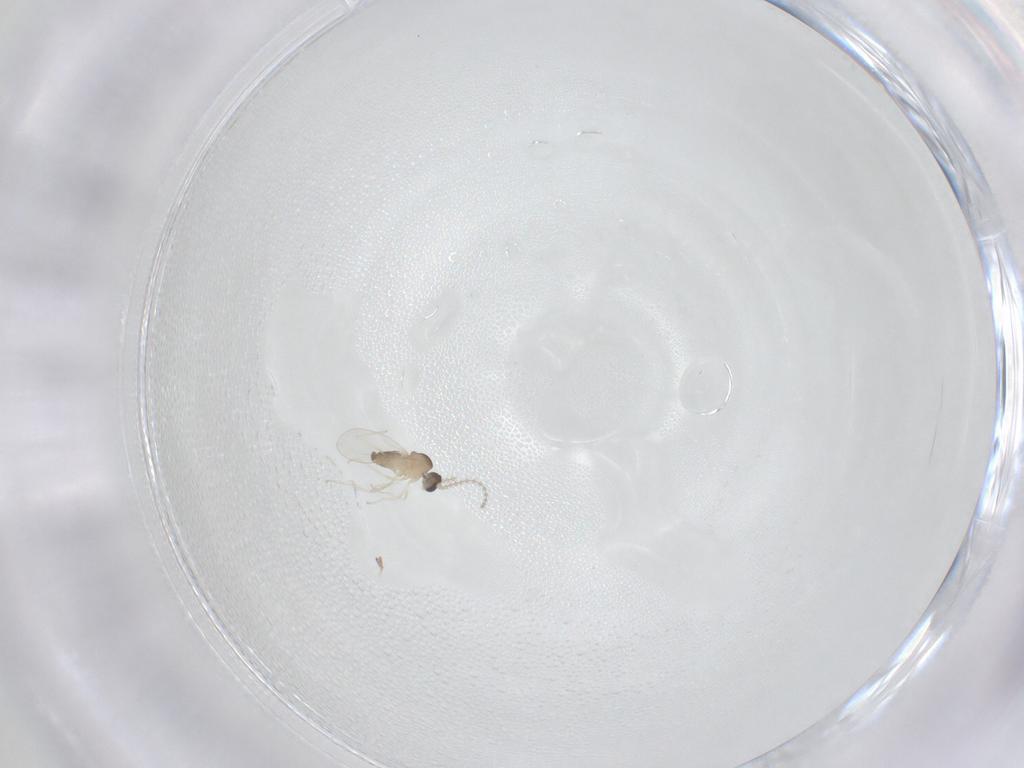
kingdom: Animalia
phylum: Arthropoda
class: Insecta
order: Diptera
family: Cecidomyiidae
